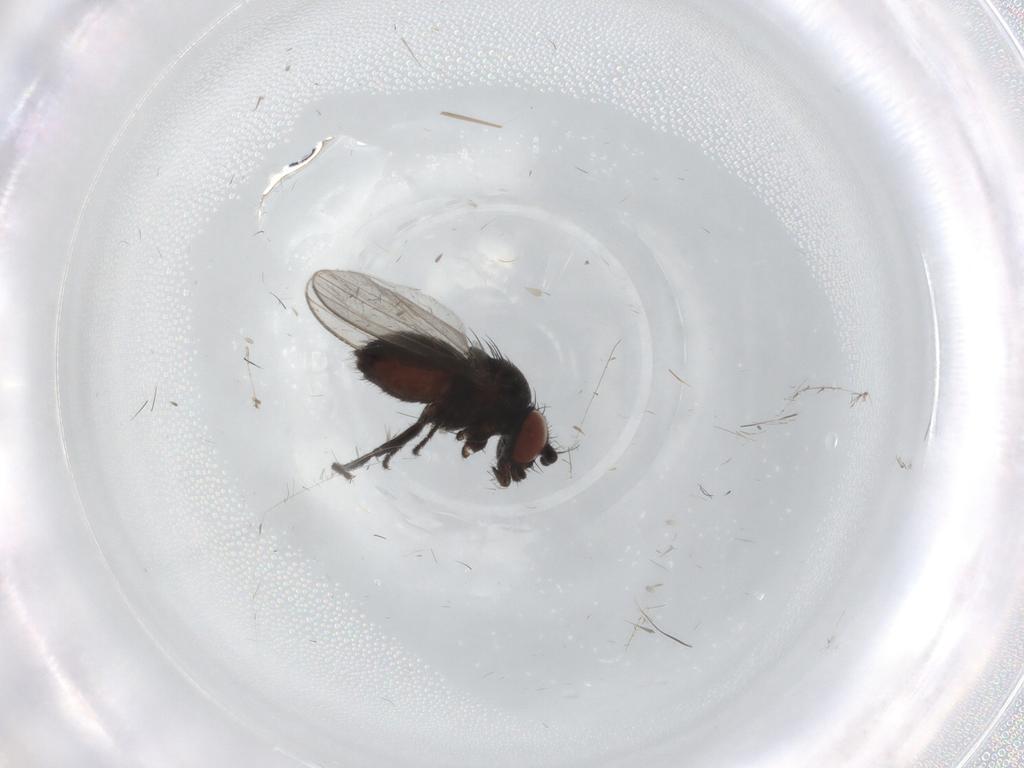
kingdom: Animalia
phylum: Arthropoda
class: Insecta
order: Diptera
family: Milichiidae
